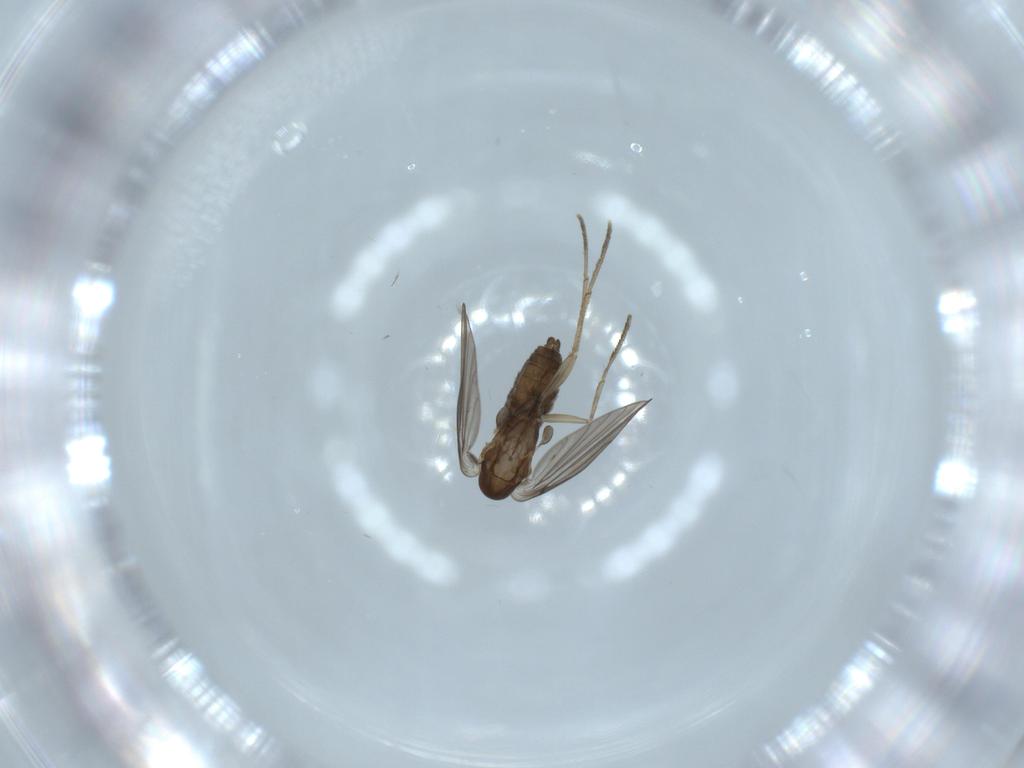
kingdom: Animalia
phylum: Arthropoda
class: Insecta
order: Diptera
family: Psychodidae
